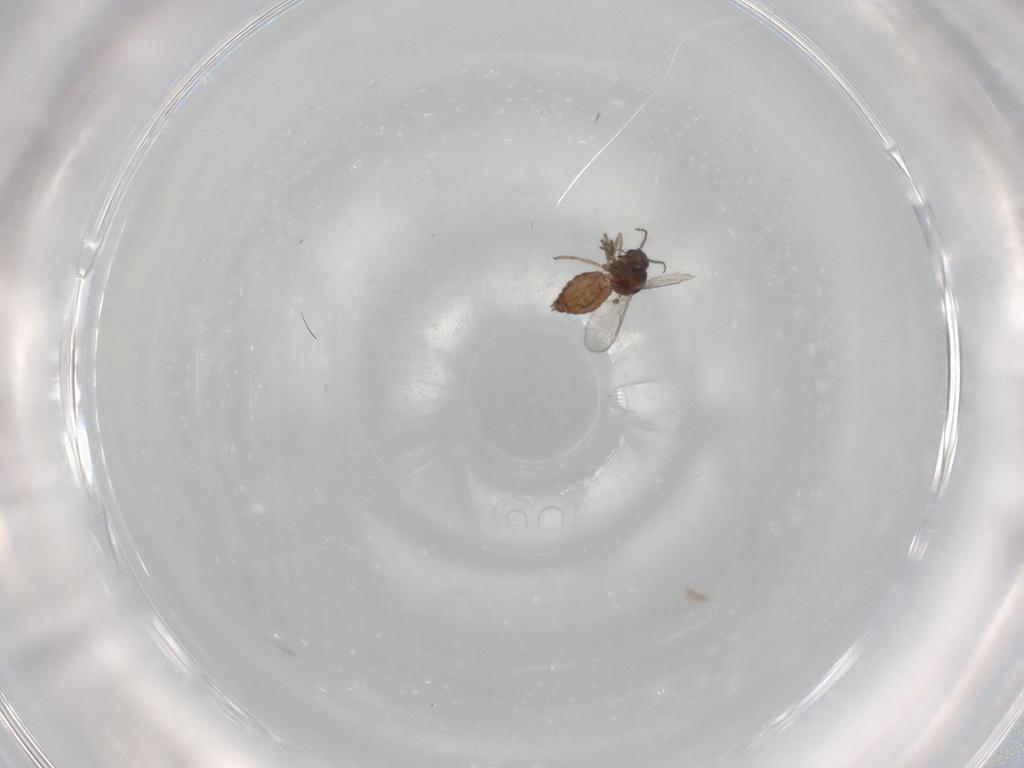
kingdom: Animalia
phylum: Arthropoda
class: Insecta
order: Diptera
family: Ceratopogonidae
